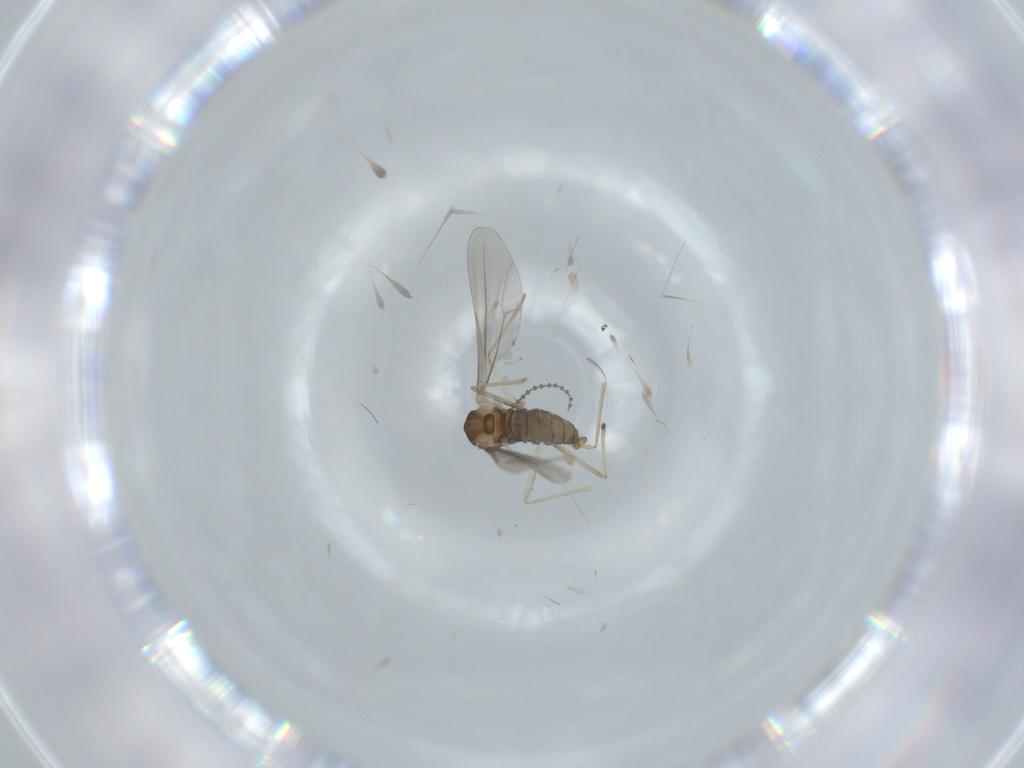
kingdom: Animalia
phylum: Arthropoda
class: Insecta
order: Diptera
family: Cecidomyiidae
